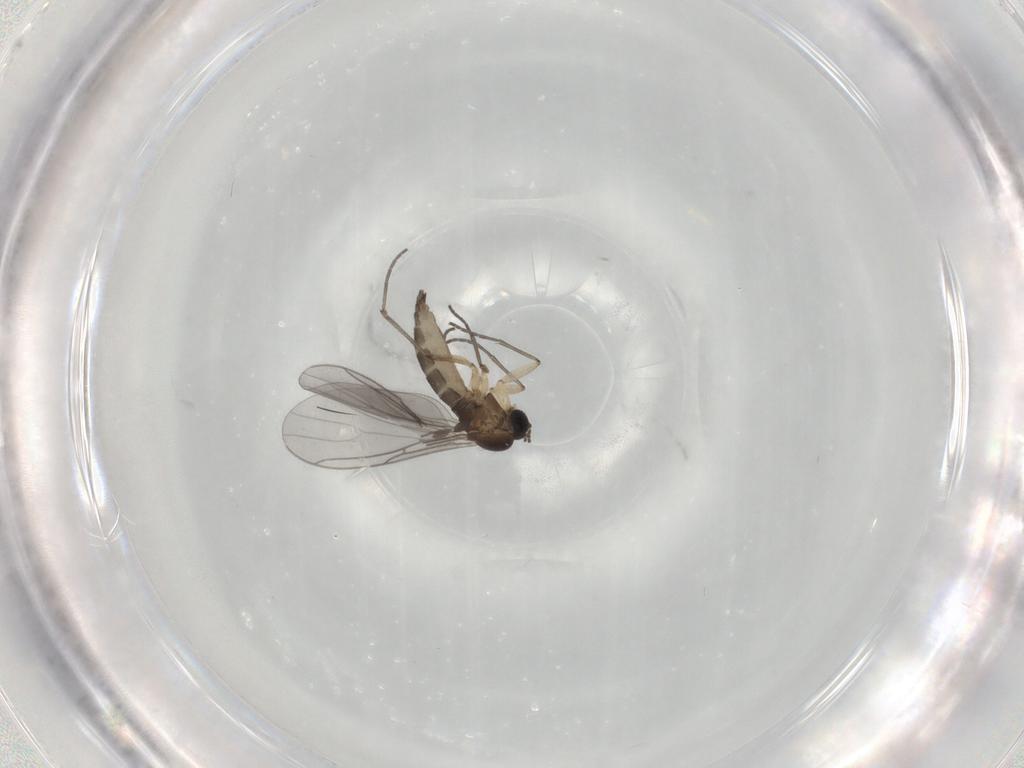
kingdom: Animalia
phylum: Arthropoda
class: Insecta
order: Diptera
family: Sciaridae
